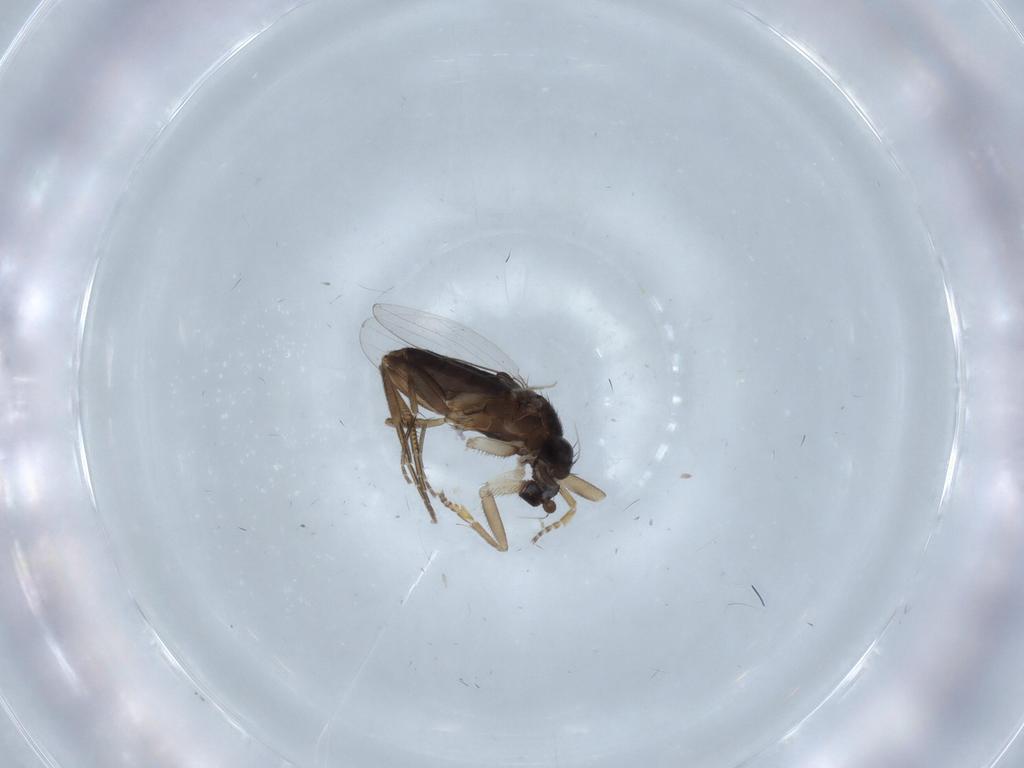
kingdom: Animalia
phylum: Arthropoda
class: Insecta
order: Diptera
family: Phoridae
